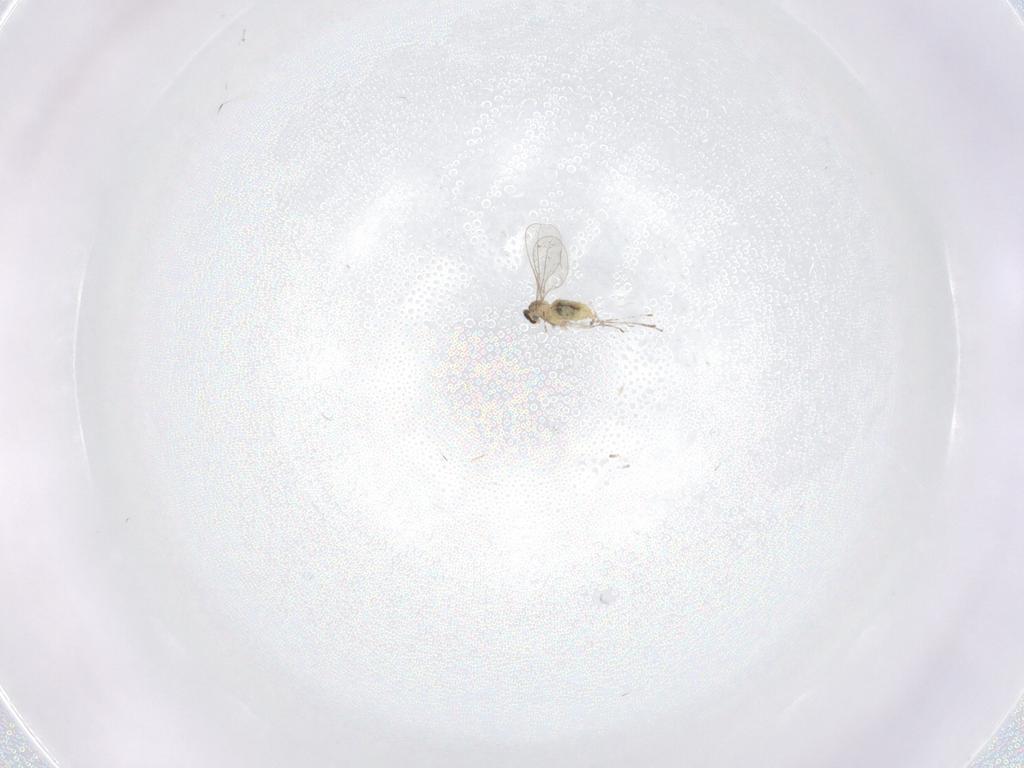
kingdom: Animalia
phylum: Arthropoda
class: Insecta
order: Diptera
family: Cecidomyiidae
